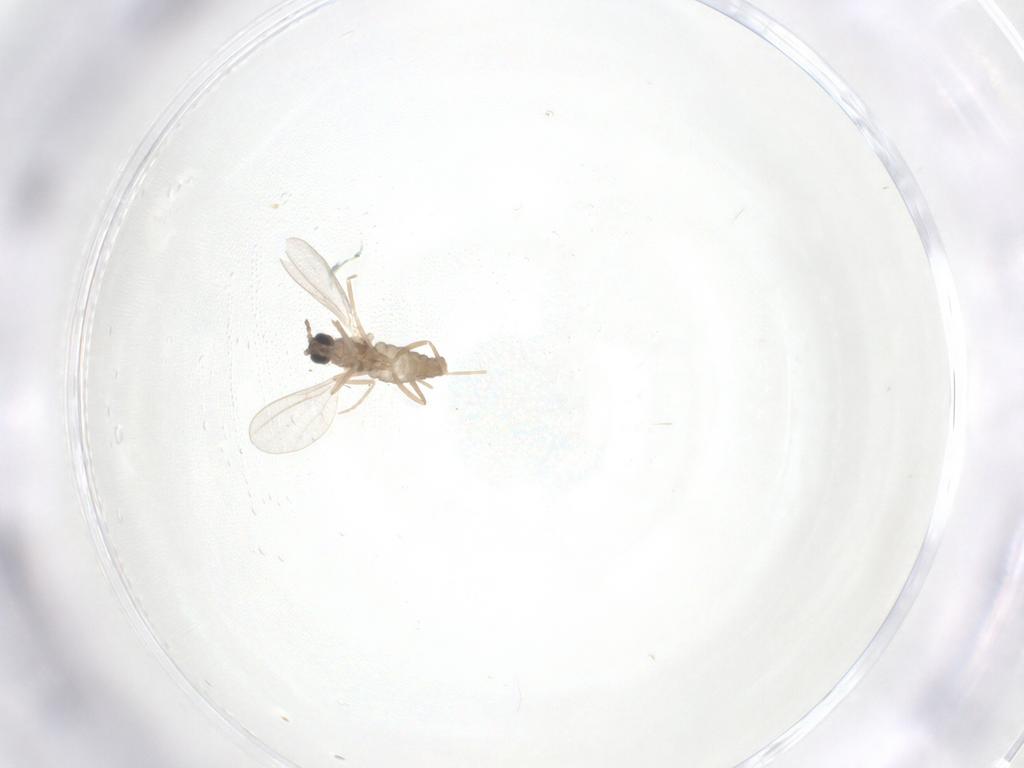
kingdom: Animalia
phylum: Arthropoda
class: Insecta
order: Diptera
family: Cecidomyiidae
